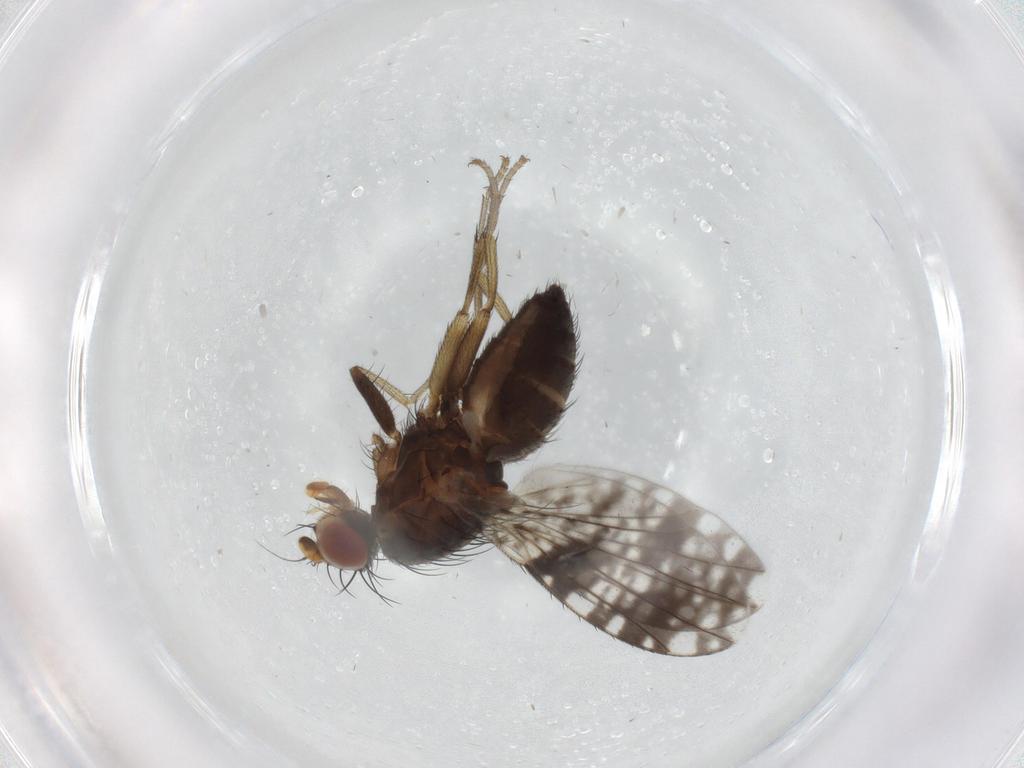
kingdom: Animalia
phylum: Arthropoda
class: Insecta
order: Diptera
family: Tephritidae
